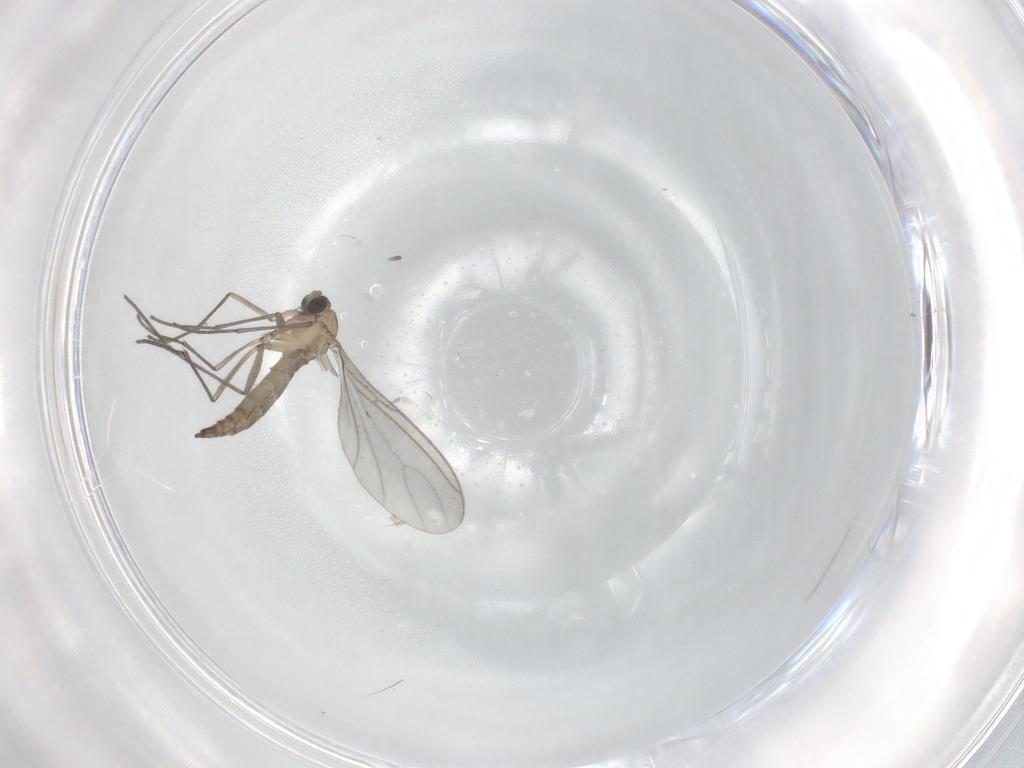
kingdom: Animalia
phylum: Arthropoda
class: Insecta
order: Diptera
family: Sciaridae
